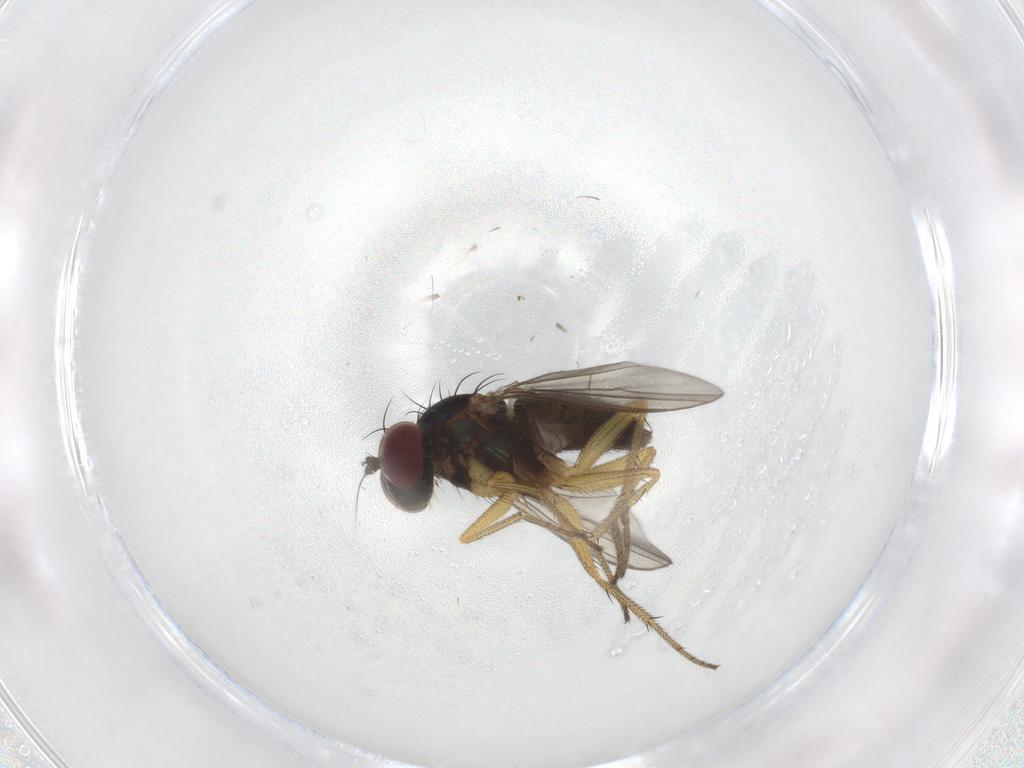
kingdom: Animalia
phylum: Arthropoda
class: Insecta
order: Diptera
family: Dolichopodidae
